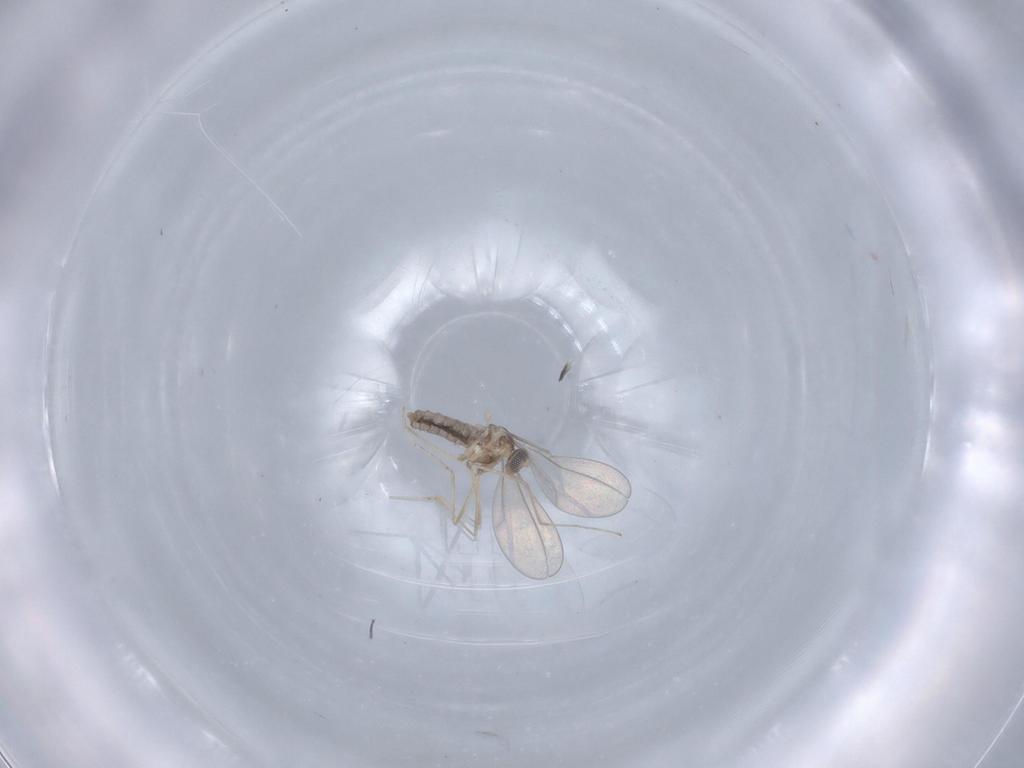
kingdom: Animalia
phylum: Arthropoda
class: Insecta
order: Diptera
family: Cecidomyiidae
